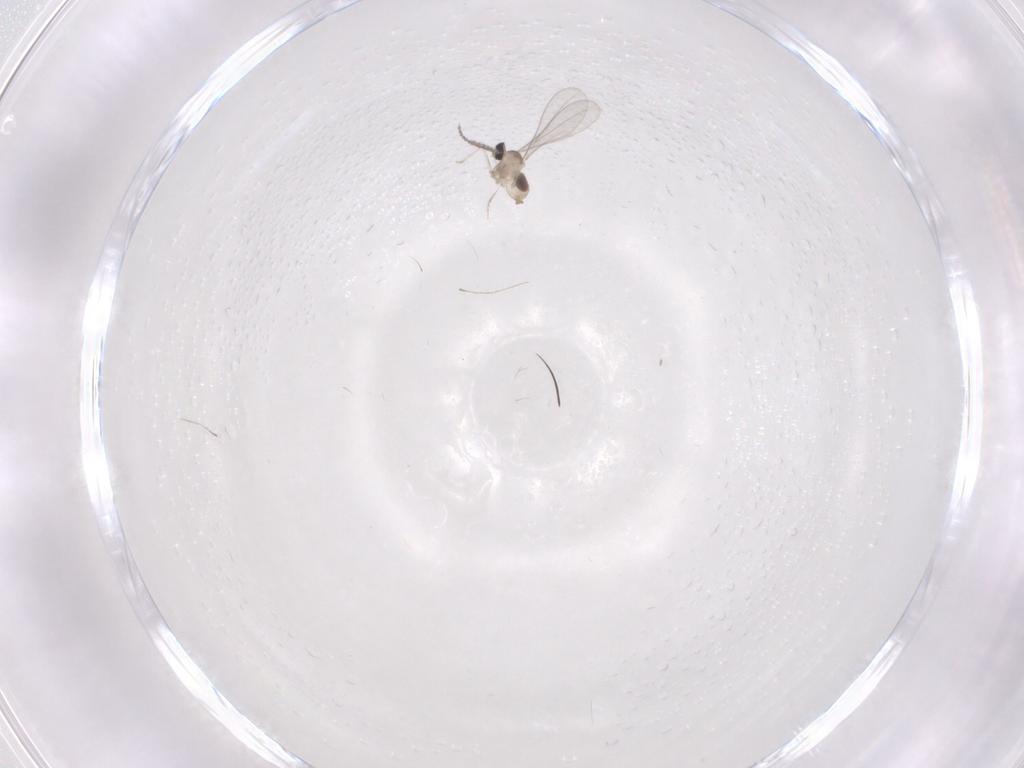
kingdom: Animalia
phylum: Arthropoda
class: Insecta
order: Diptera
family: Cecidomyiidae
